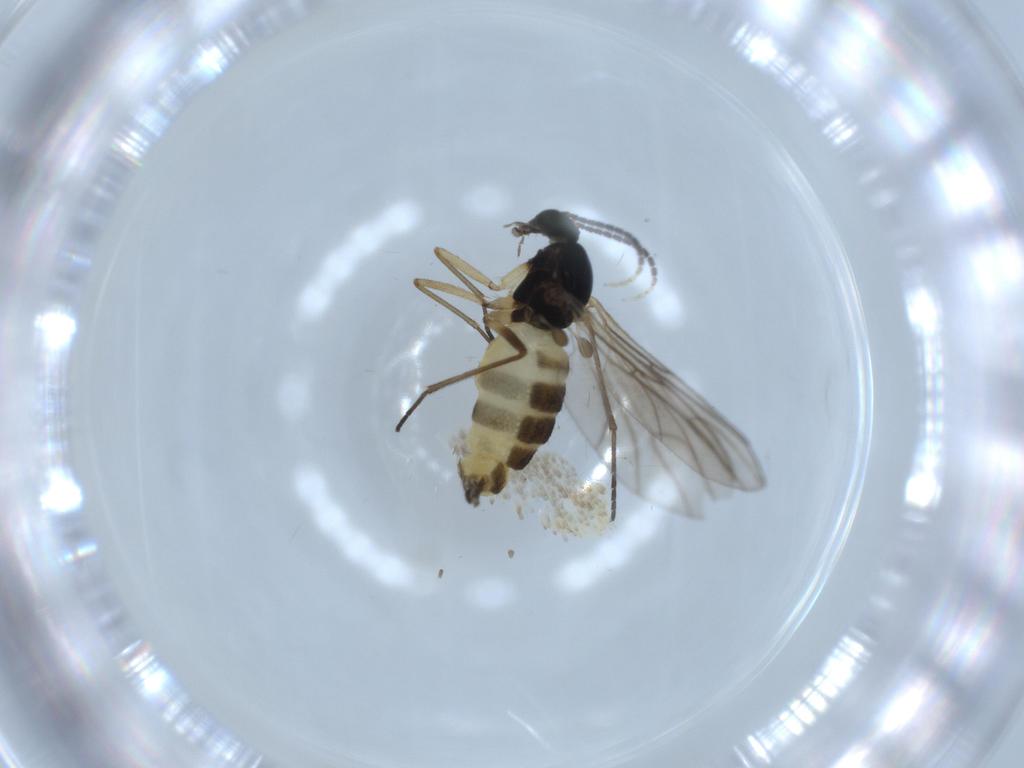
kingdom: Animalia
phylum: Arthropoda
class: Insecta
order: Diptera
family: Sciaridae
